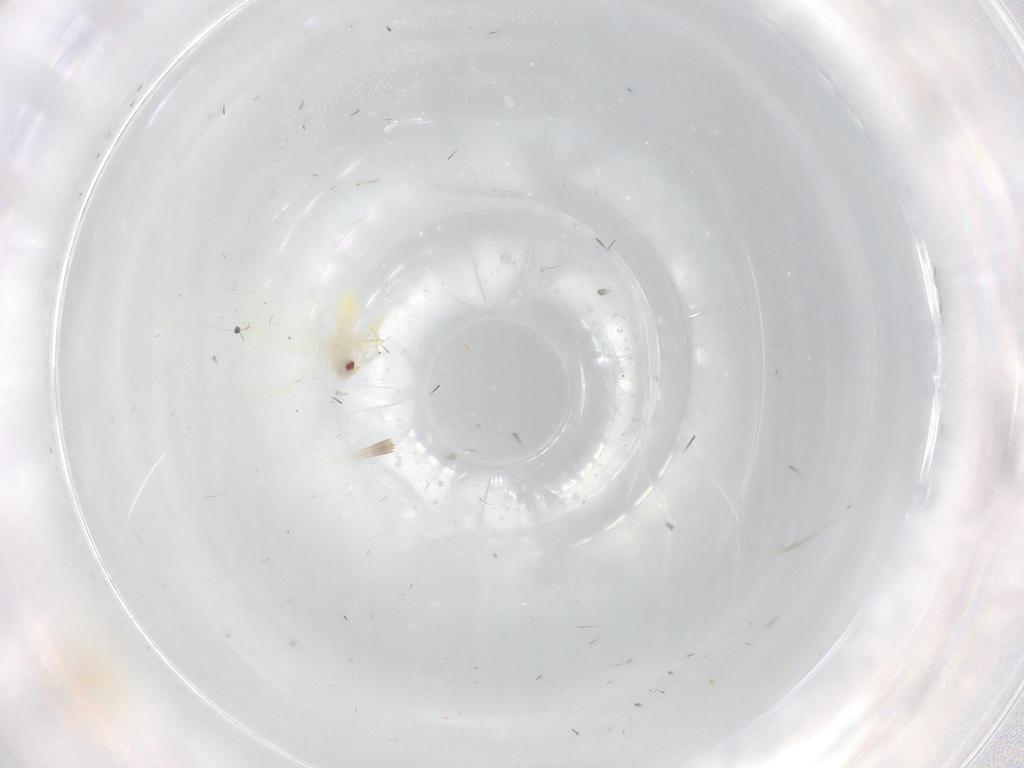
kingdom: Animalia
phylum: Arthropoda
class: Insecta
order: Hemiptera
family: Aleyrodidae
